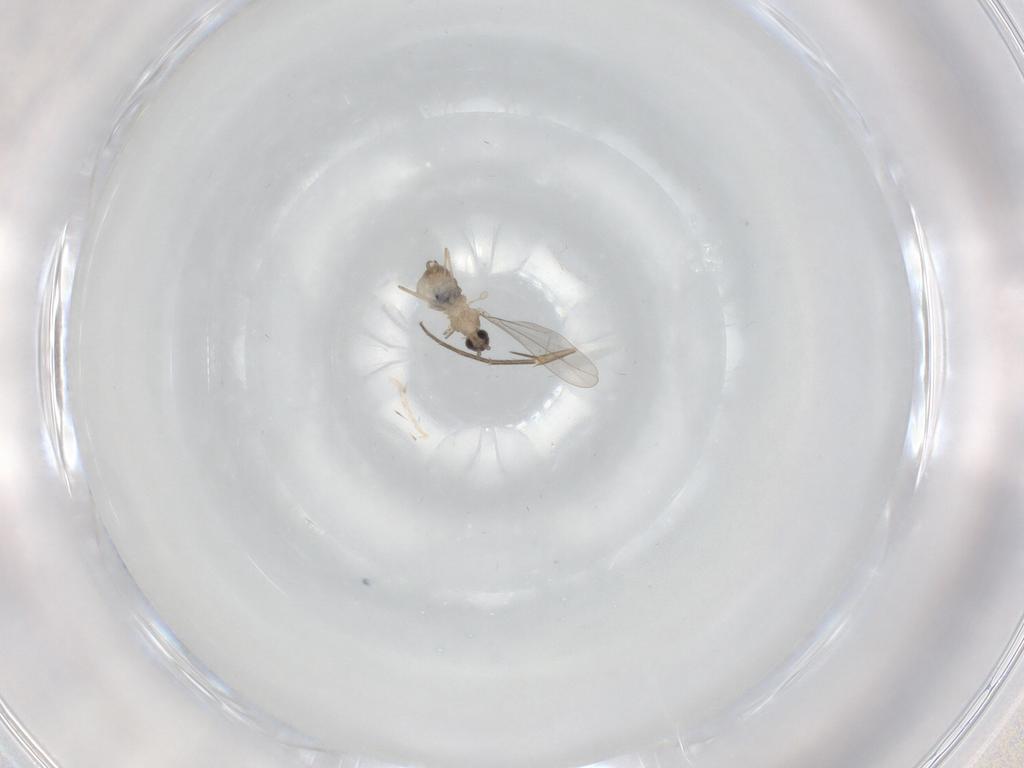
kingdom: Animalia
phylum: Arthropoda
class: Insecta
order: Diptera
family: Cecidomyiidae
